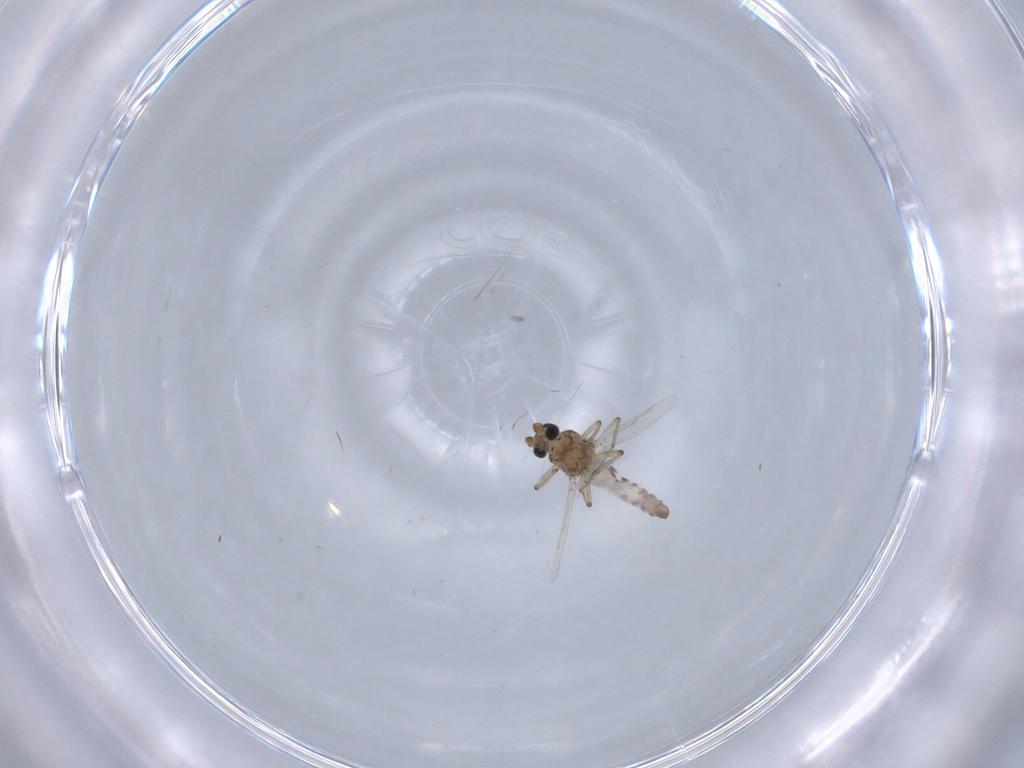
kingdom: Animalia
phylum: Arthropoda
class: Insecta
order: Diptera
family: Ceratopogonidae
